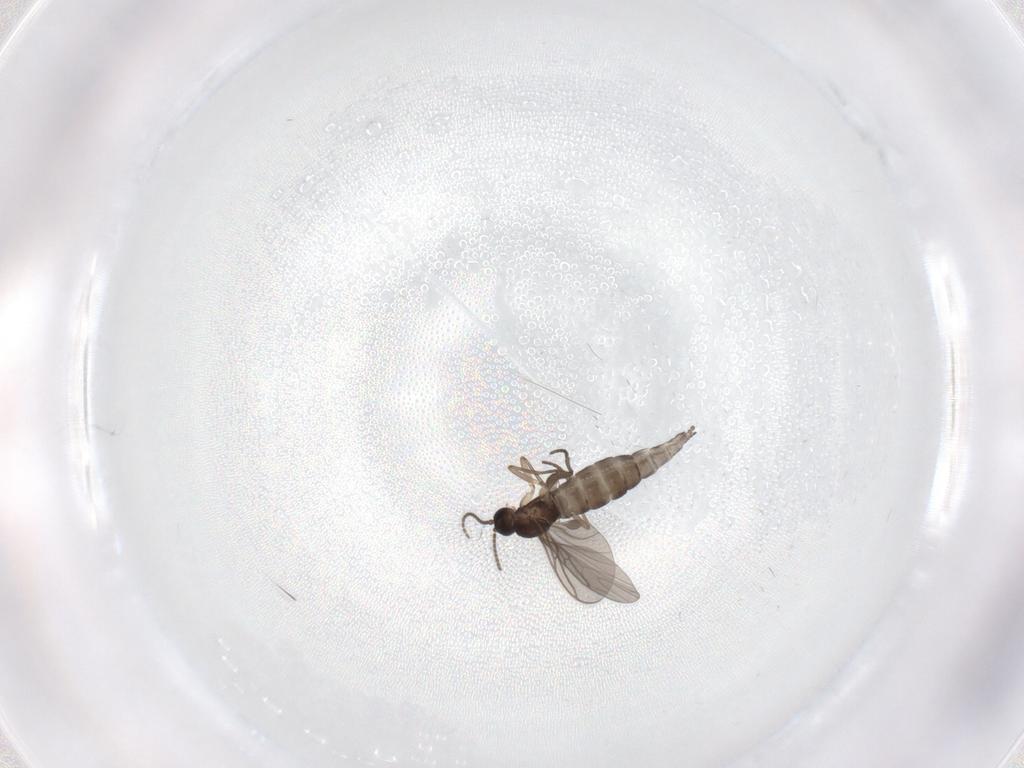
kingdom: Animalia
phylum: Arthropoda
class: Insecta
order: Diptera
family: Sciaridae
